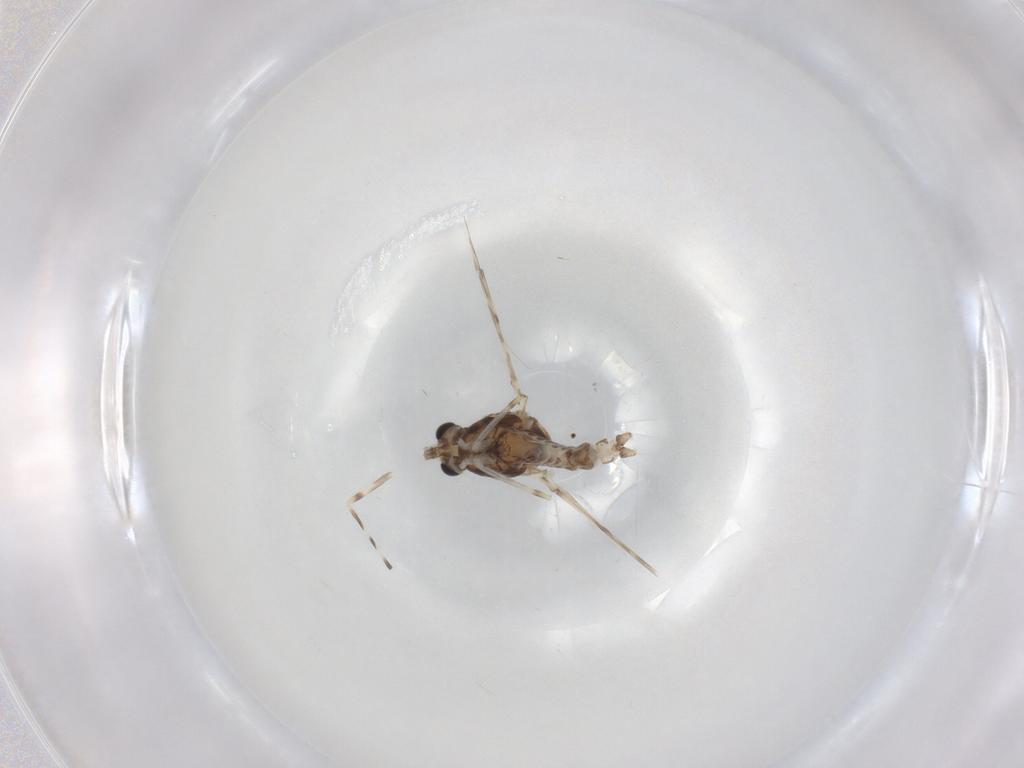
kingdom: Animalia
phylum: Arthropoda
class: Insecta
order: Diptera
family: Chironomidae
